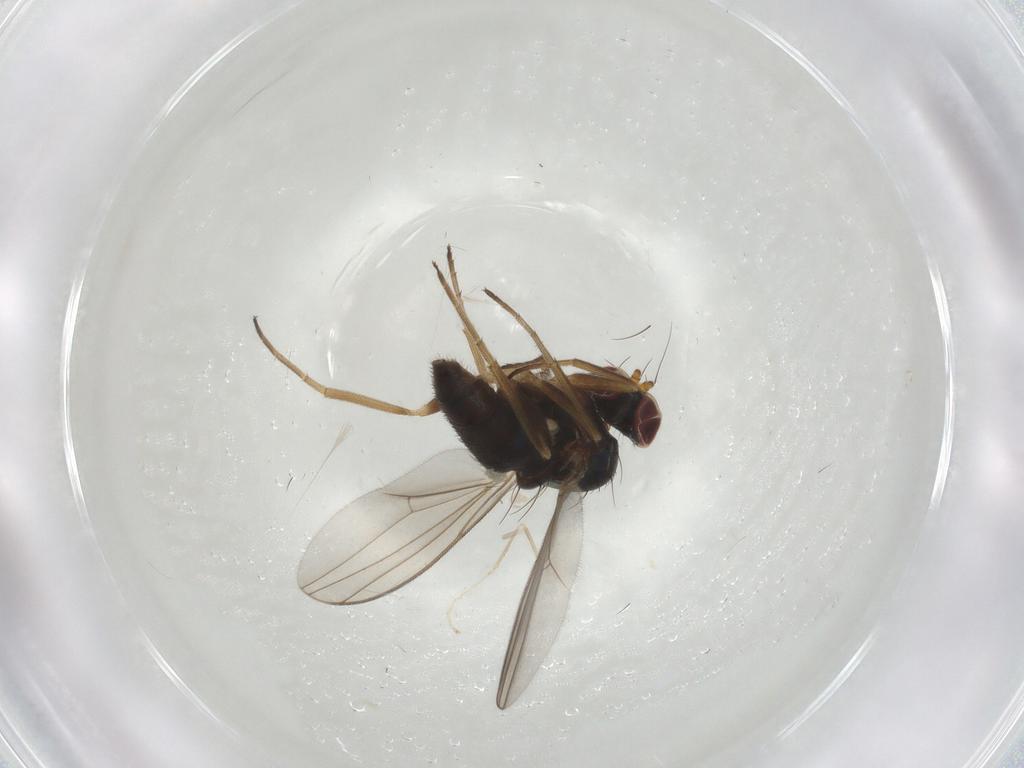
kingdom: Animalia
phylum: Arthropoda
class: Insecta
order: Diptera
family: Dolichopodidae
